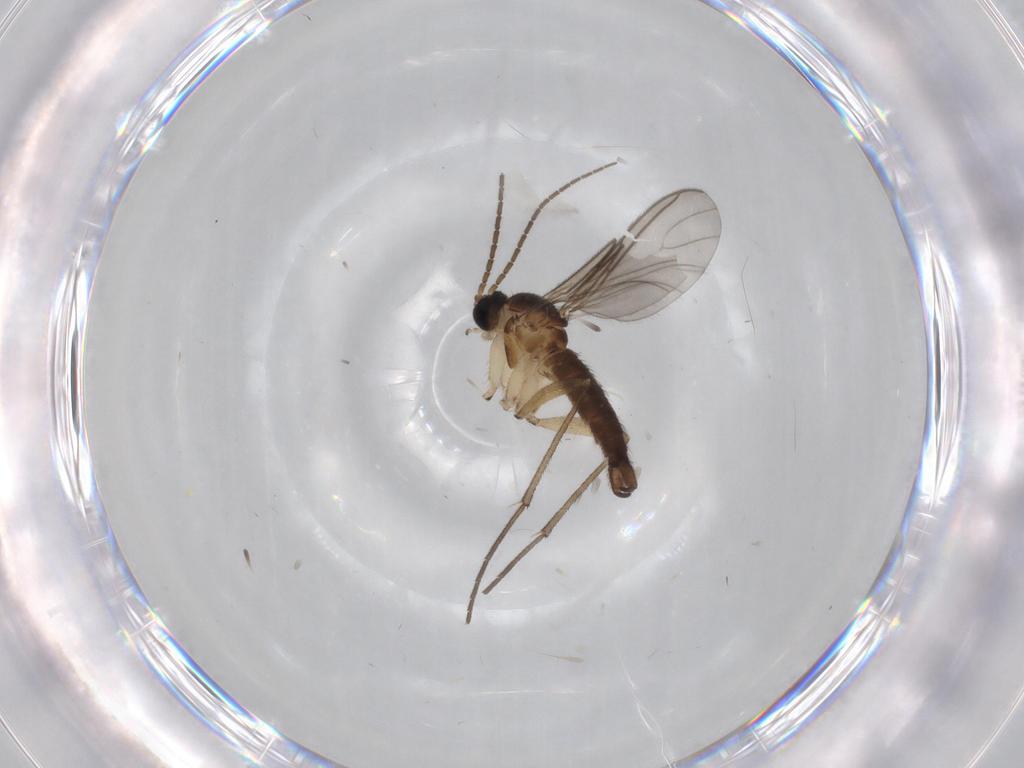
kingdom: Animalia
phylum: Arthropoda
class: Insecta
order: Diptera
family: Sciaridae
